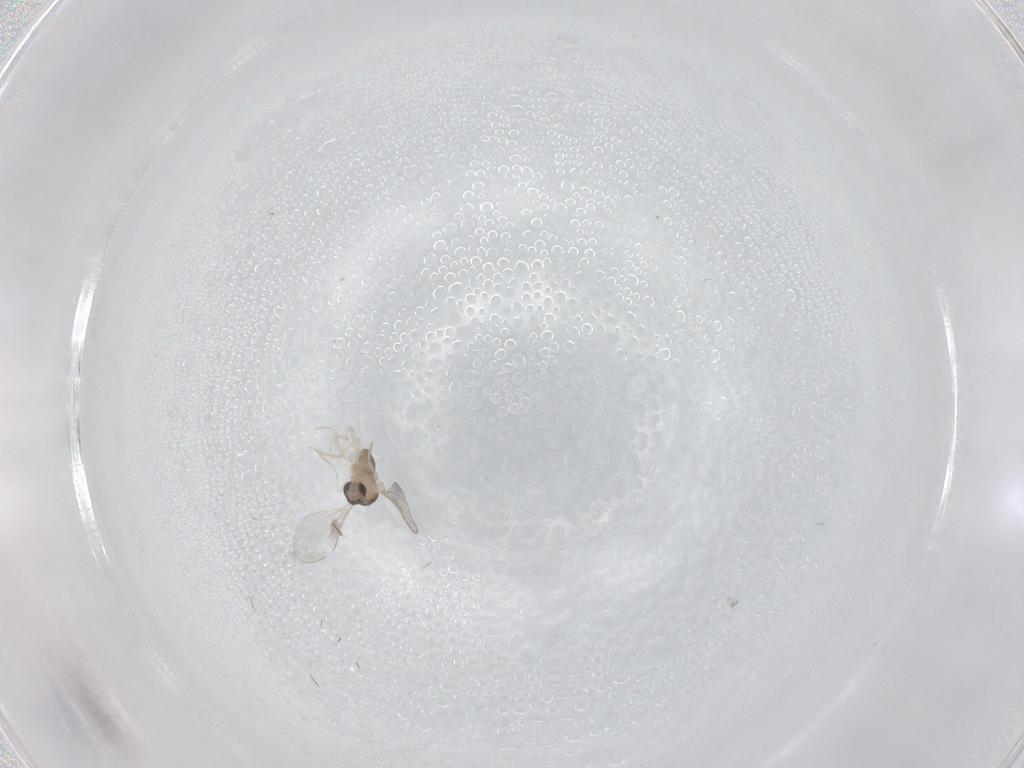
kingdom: Animalia
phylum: Arthropoda
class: Insecta
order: Diptera
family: Cecidomyiidae
